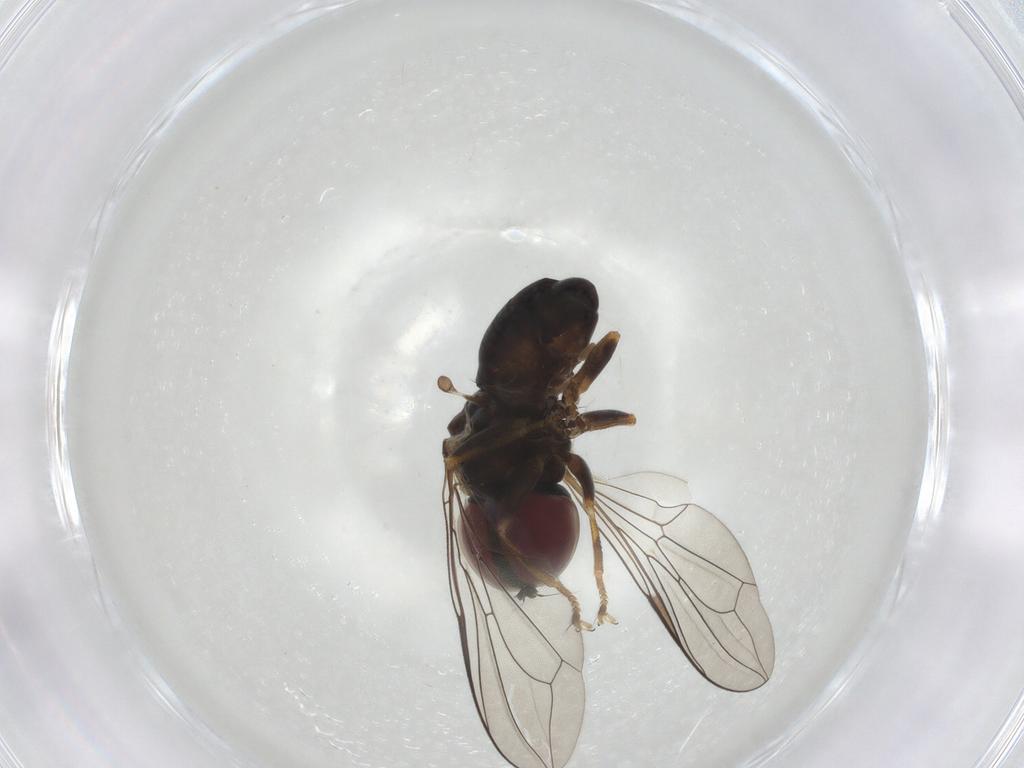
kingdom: Animalia
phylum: Arthropoda
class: Insecta
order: Diptera
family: Pipunculidae
